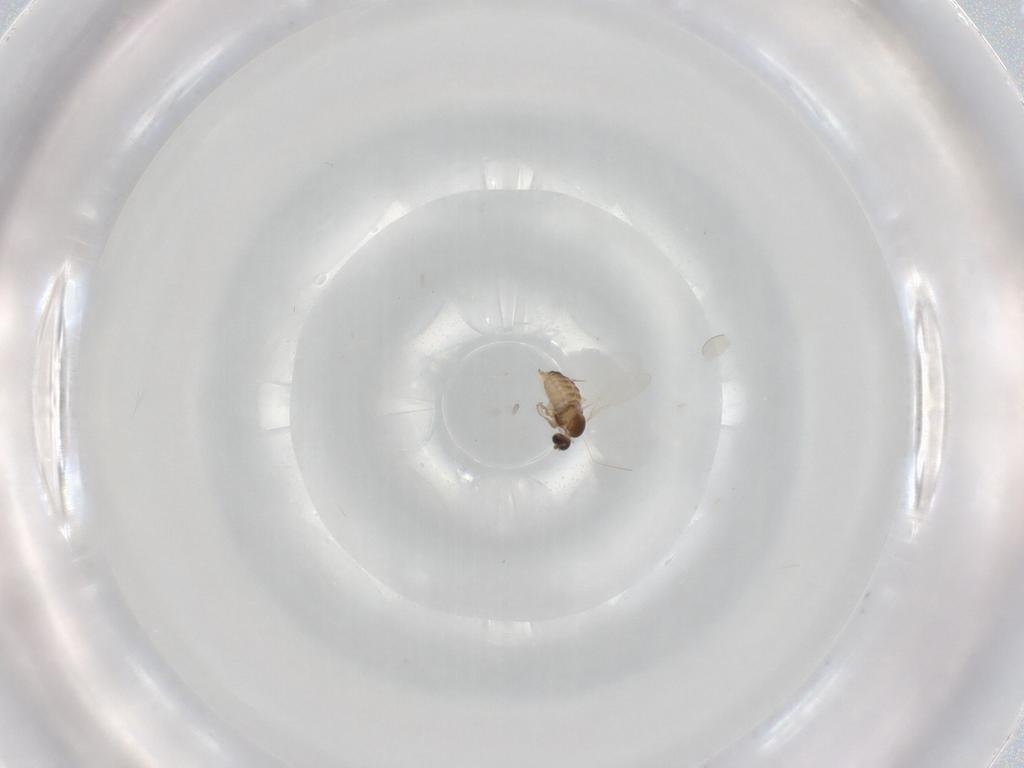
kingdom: Animalia
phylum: Arthropoda
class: Insecta
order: Diptera
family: Cecidomyiidae
